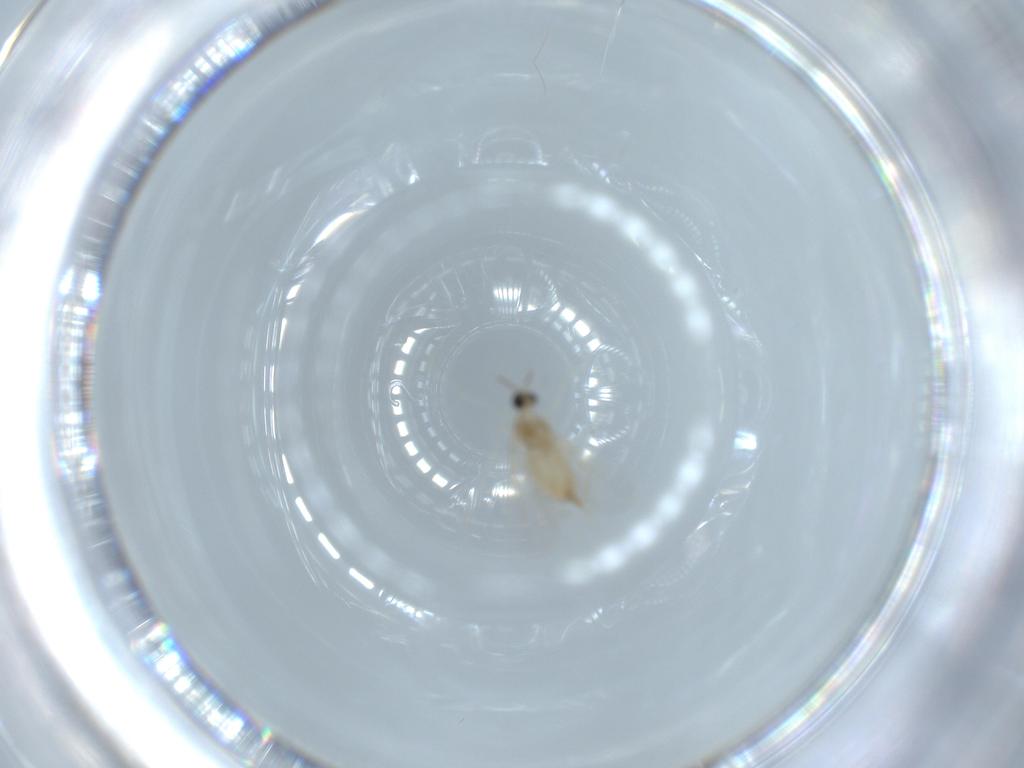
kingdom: Animalia
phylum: Arthropoda
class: Insecta
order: Diptera
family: Cecidomyiidae
